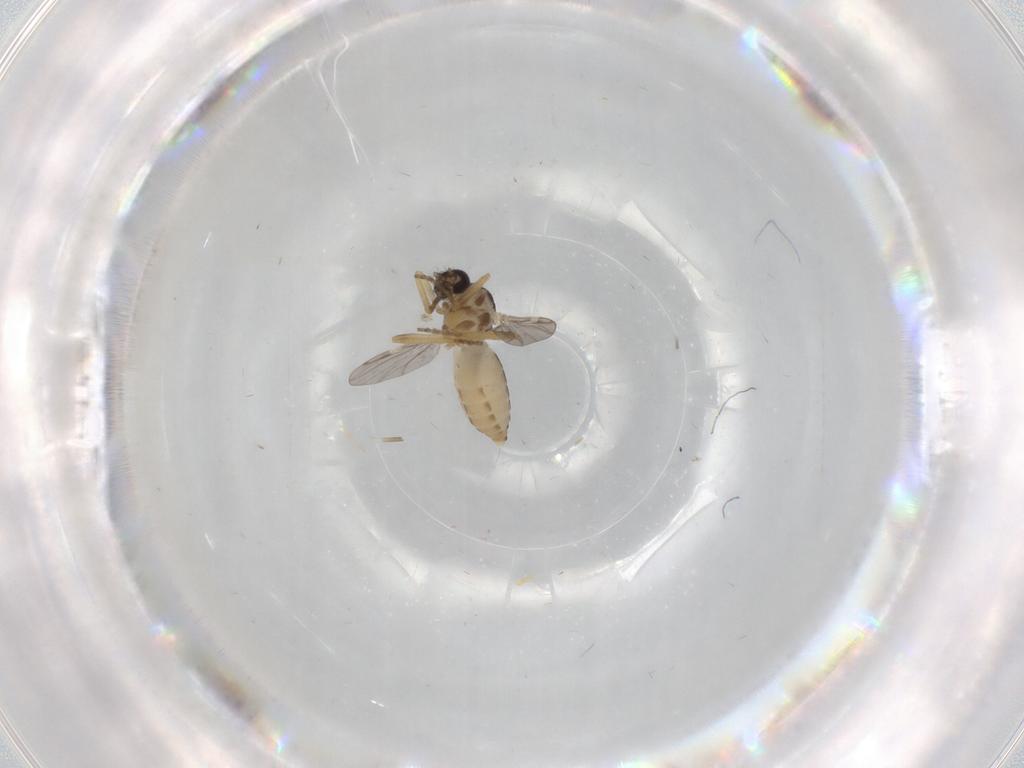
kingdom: Animalia
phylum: Arthropoda
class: Insecta
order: Diptera
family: Ceratopogonidae
